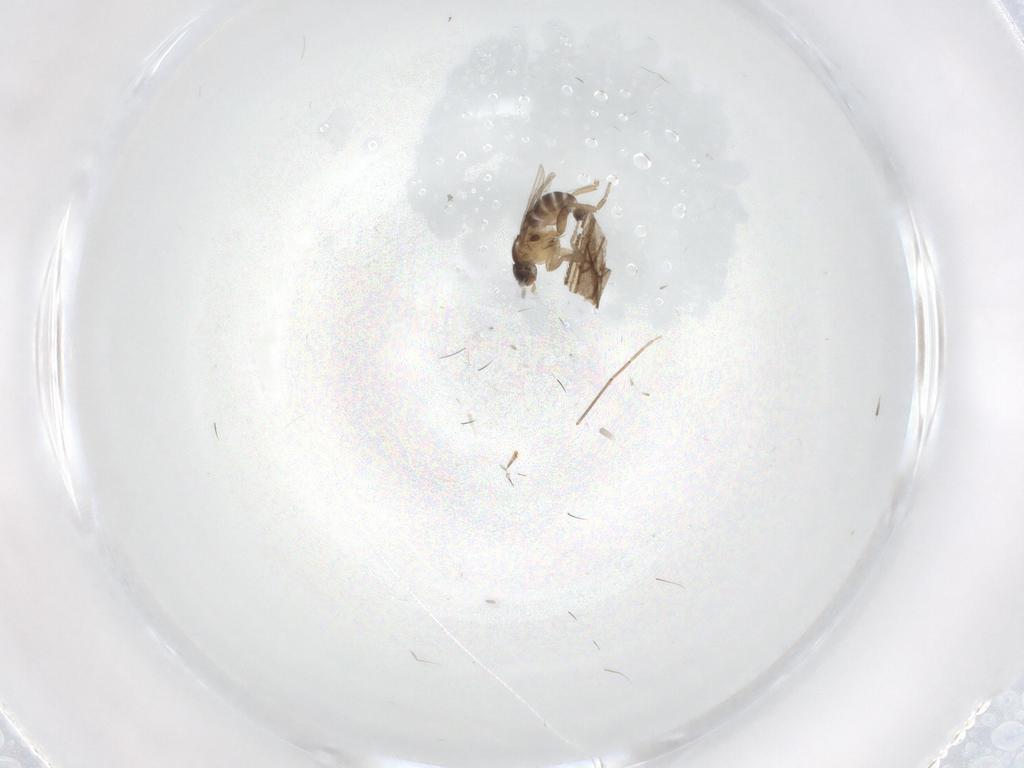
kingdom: Animalia
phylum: Arthropoda
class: Insecta
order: Diptera
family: Phoridae
